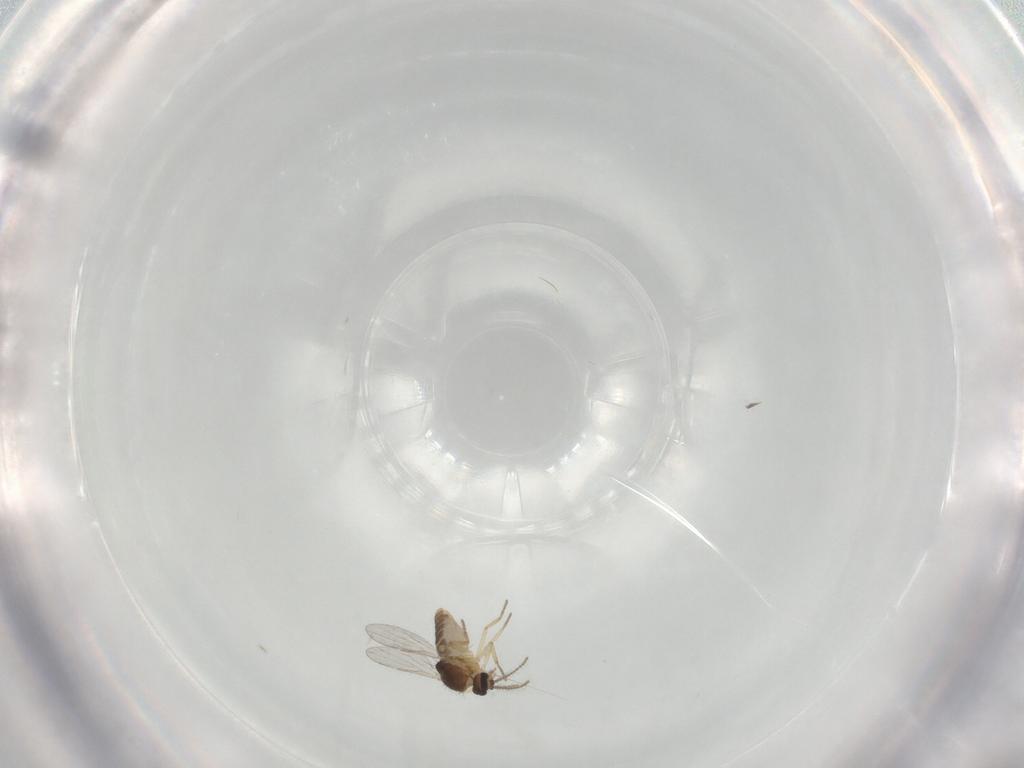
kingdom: Animalia
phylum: Arthropoda
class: Insecta
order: Diptera
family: Ceratopogonidae
